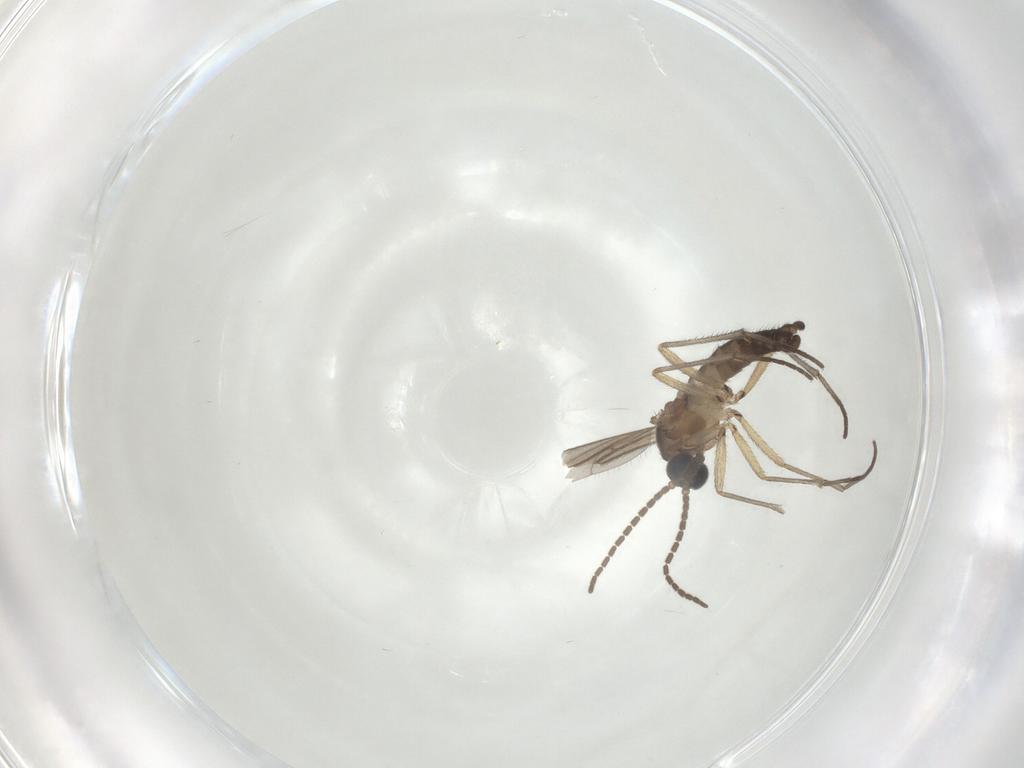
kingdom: Animalia
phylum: Arthropoda
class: Insecta
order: Diptera
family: Sciaridae
